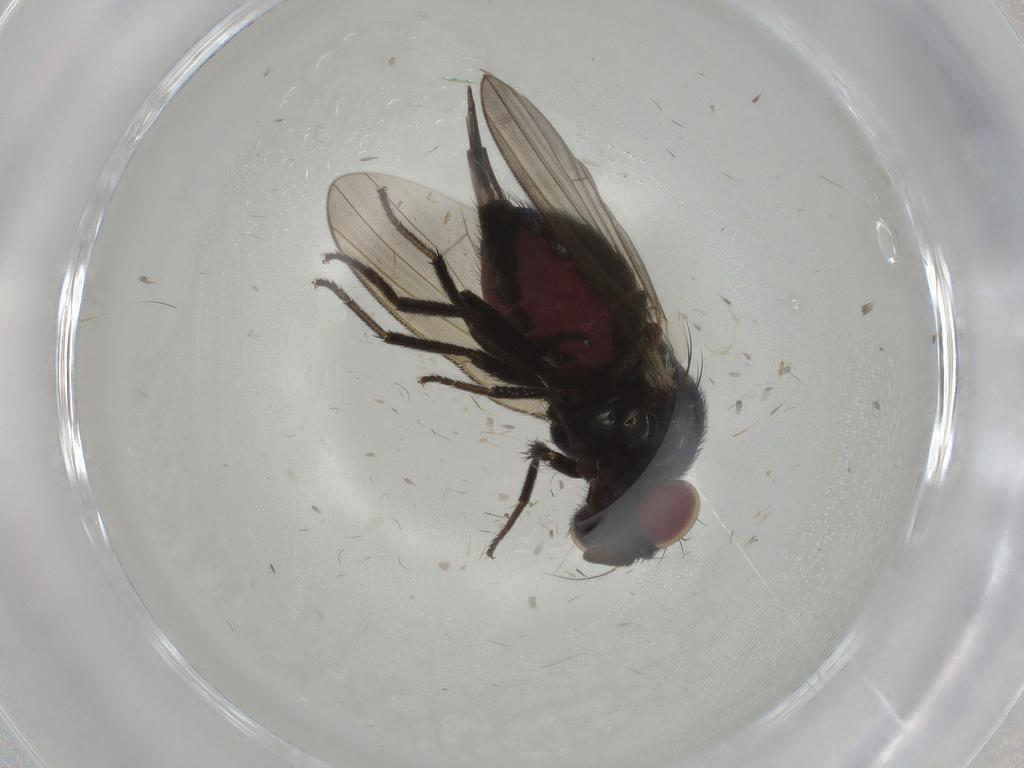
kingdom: Animalia
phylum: Arthropoda
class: Insecta
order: Diptera
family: Lonchaeidae
